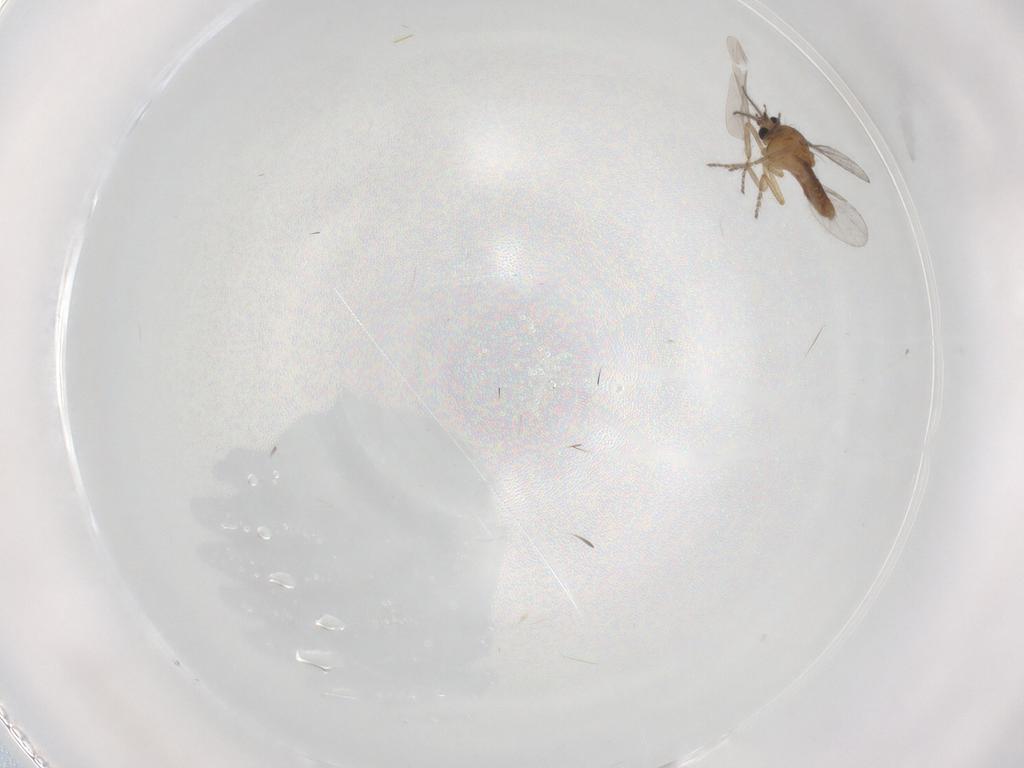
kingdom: Animalia
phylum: Arthropoda
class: Insecta
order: Diptera
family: Ceratopogonidae
